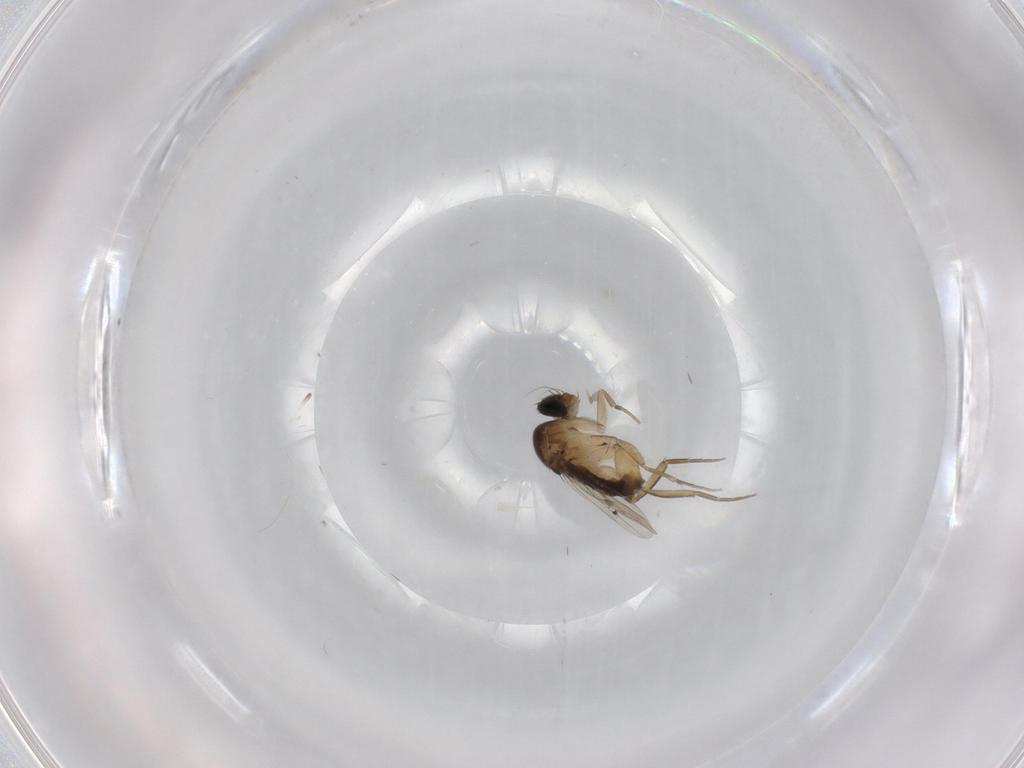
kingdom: Animalia
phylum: Arthropoda
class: Insecta
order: Diptera
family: Phoridae
